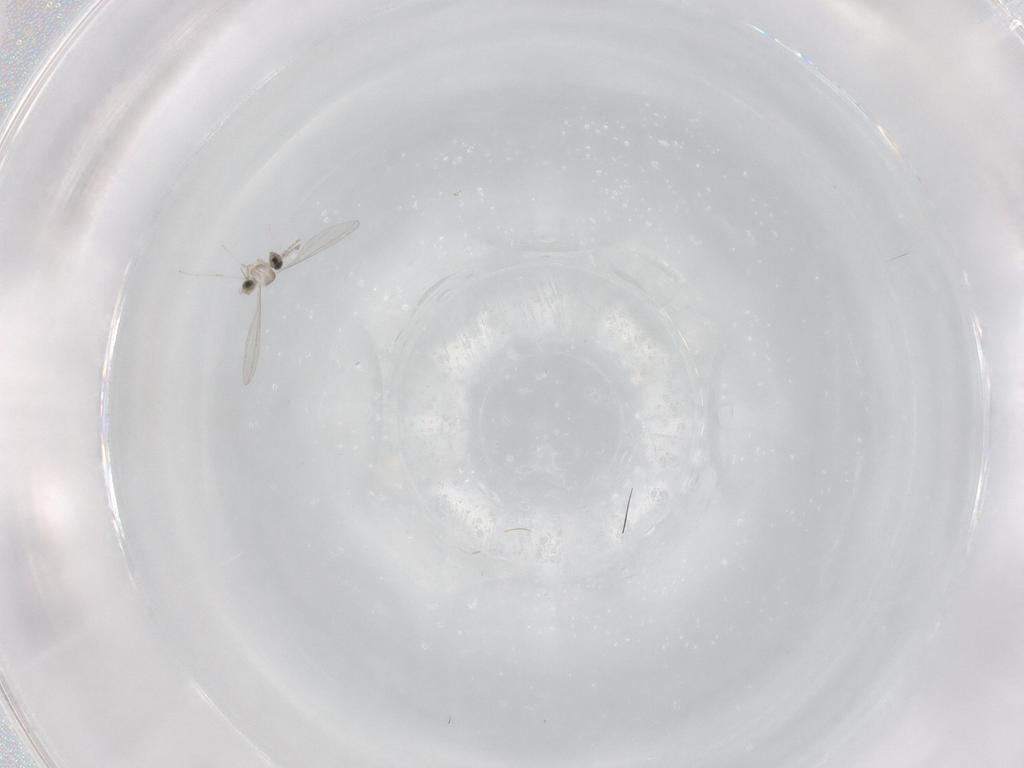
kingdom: Animalia
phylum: Arthropoda
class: Insecta
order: Diptera
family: Cecidomyiidae
